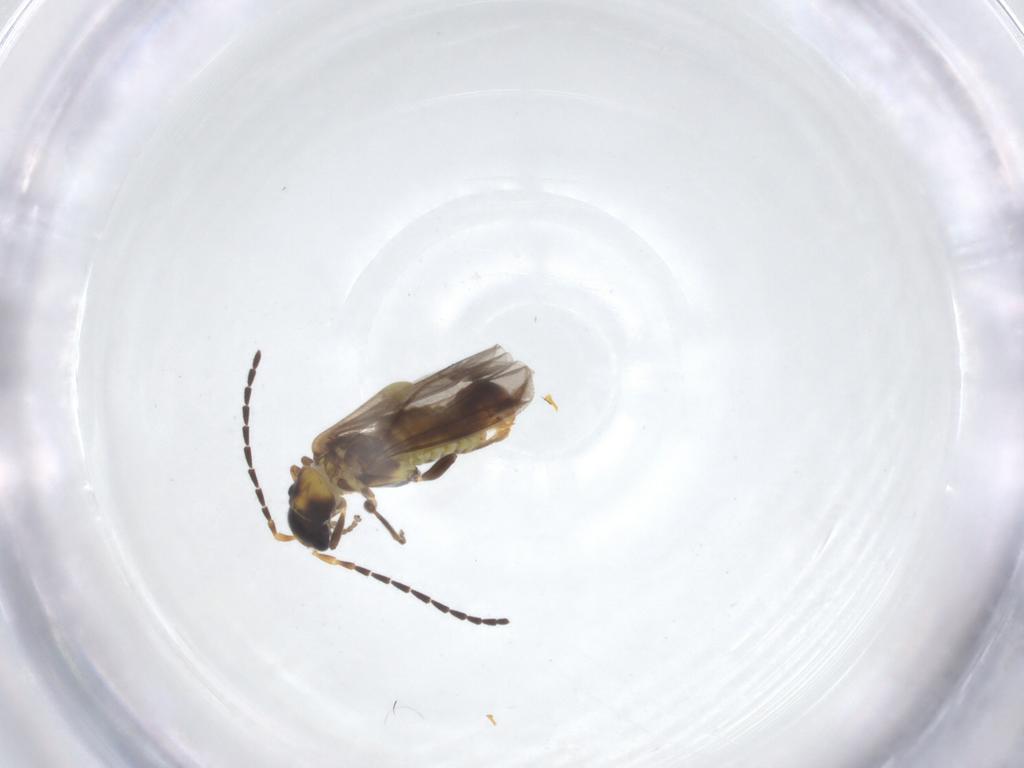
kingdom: Animalia
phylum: Arthropoda
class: Insecta
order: Coleoptera
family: Cantharidae
